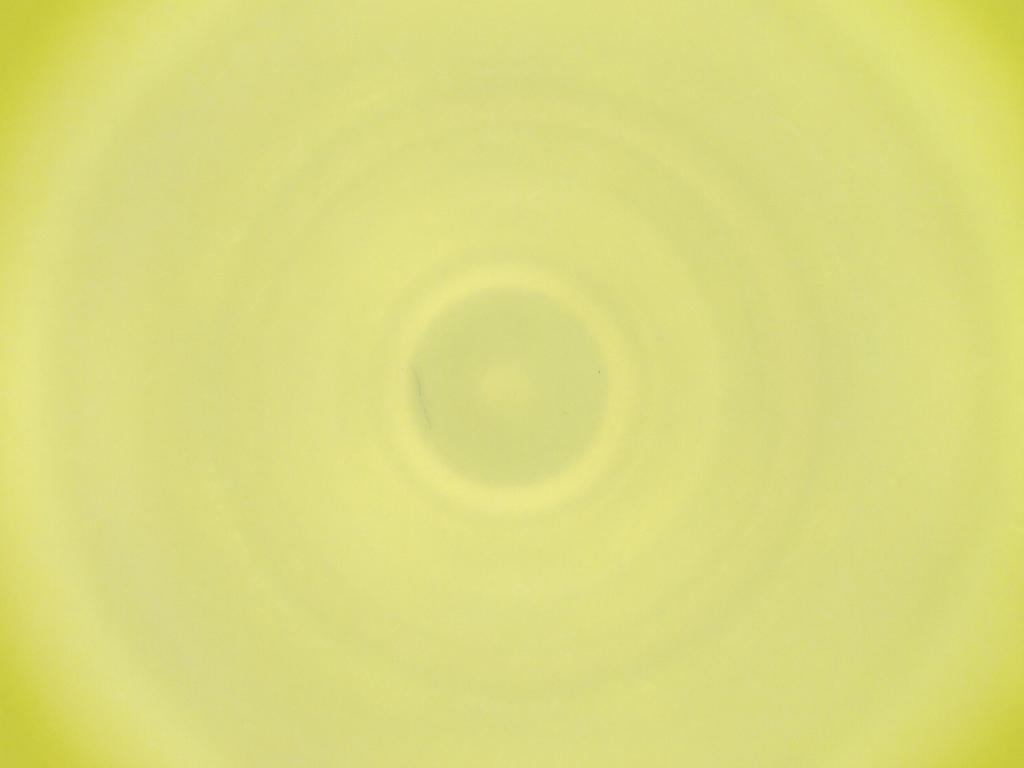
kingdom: Animalia
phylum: Arthropoda
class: Insecta
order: Diptera
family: Cecidomyiidae
